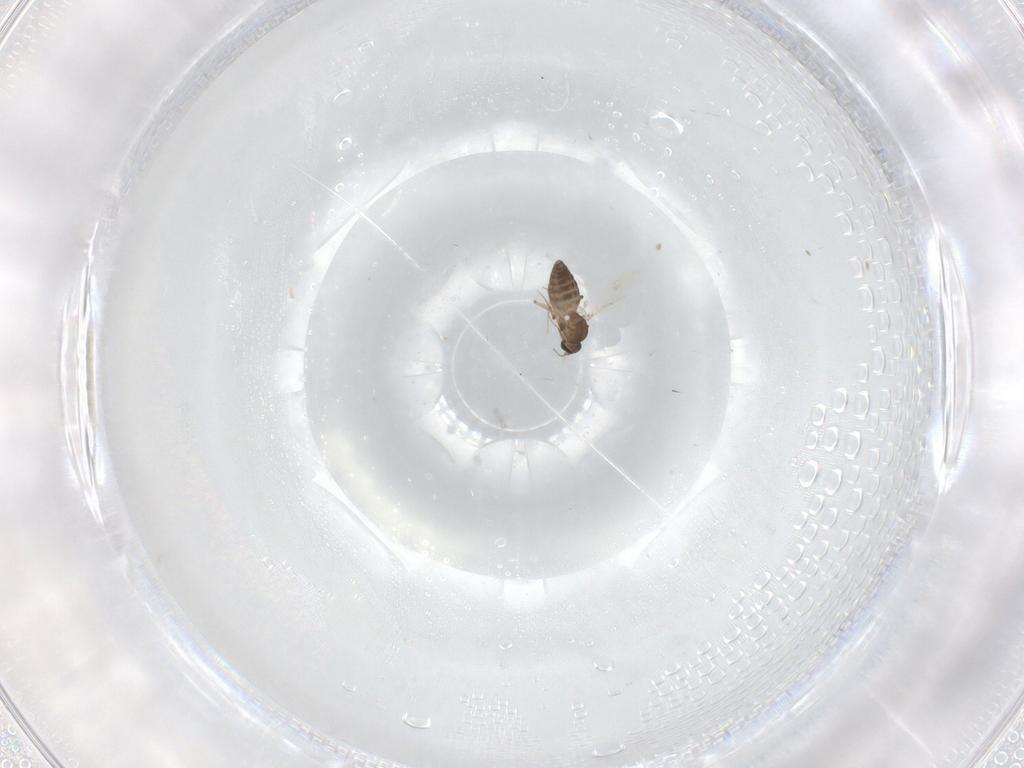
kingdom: Animalia
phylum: Arthropoda
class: Insecta
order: Diptera
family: Ceratopogonidae
